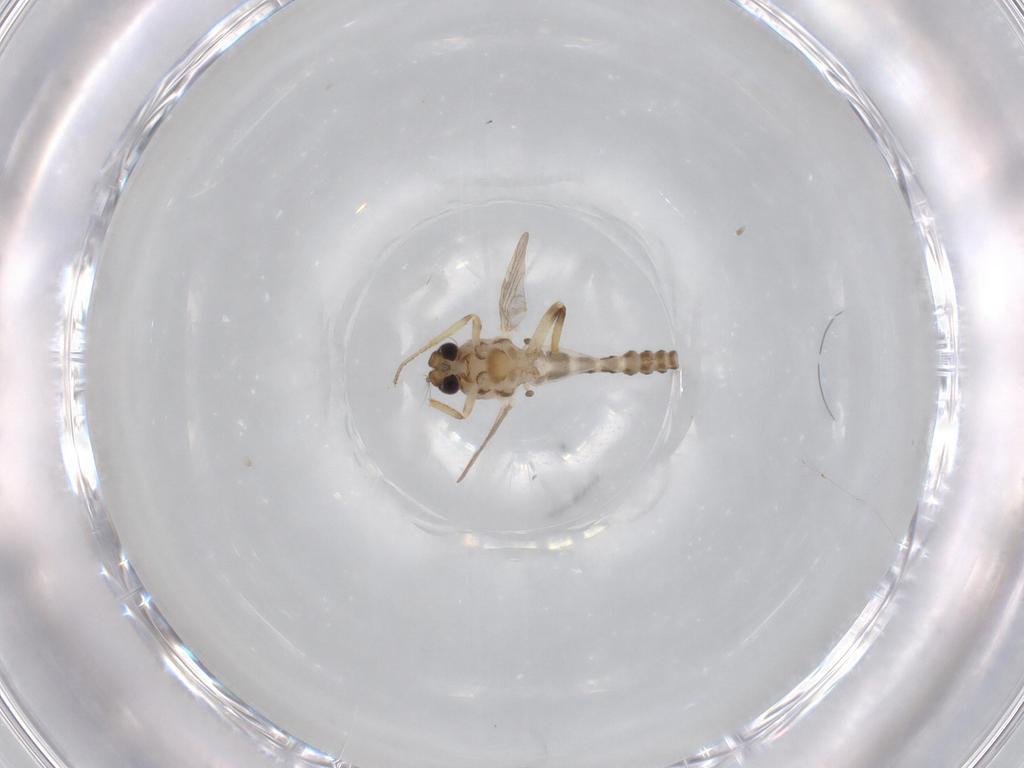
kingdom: Animalia
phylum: Arthropoda
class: Insecta
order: Diptera
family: Ceratopogonidae
